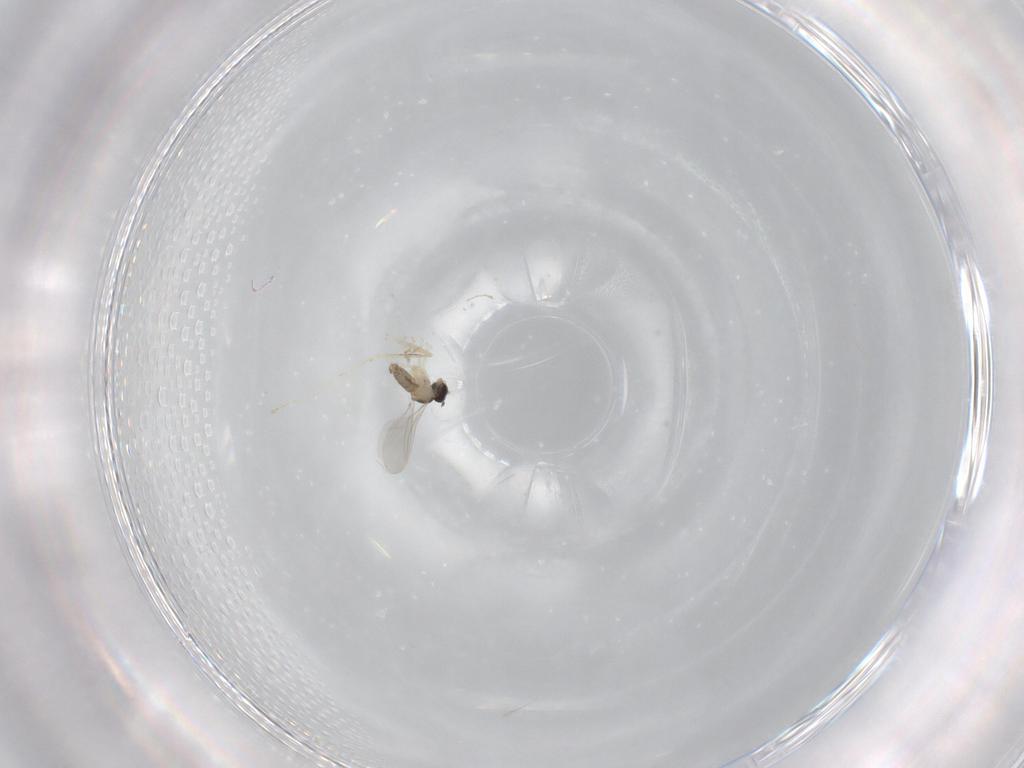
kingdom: Animalia
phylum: Arthropoda
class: Insecta
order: Diptera
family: Cecidomyiidae
